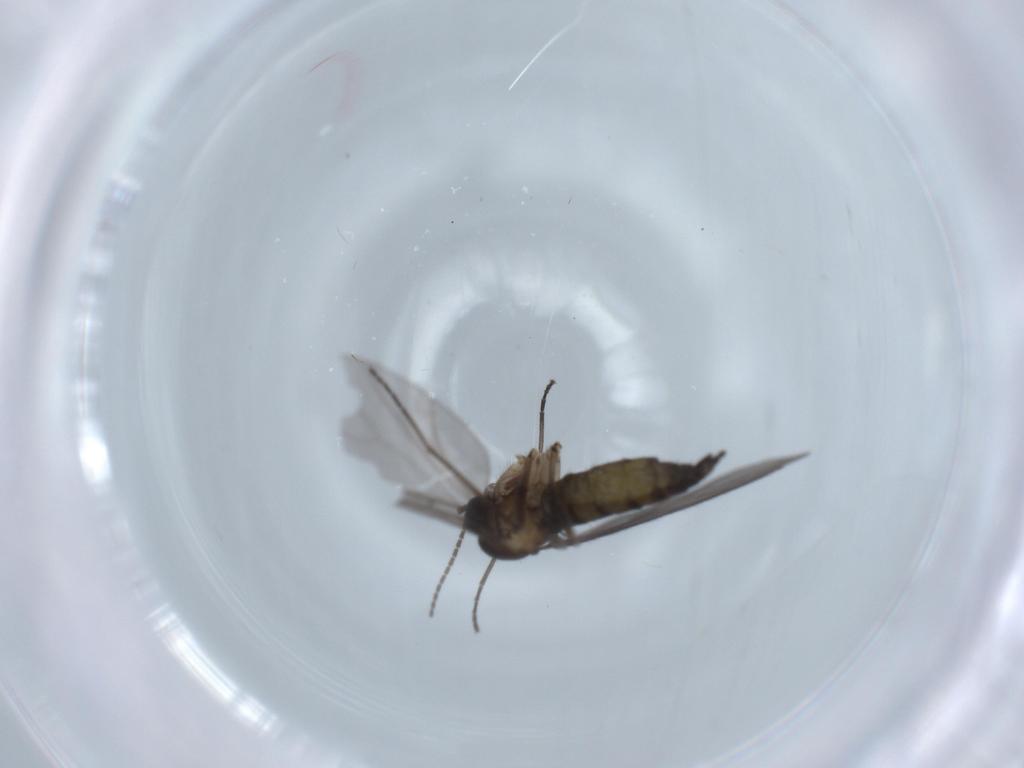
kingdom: Animalia
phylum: Arthropoda
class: Insecta
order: Diptera
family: Sciaridae
